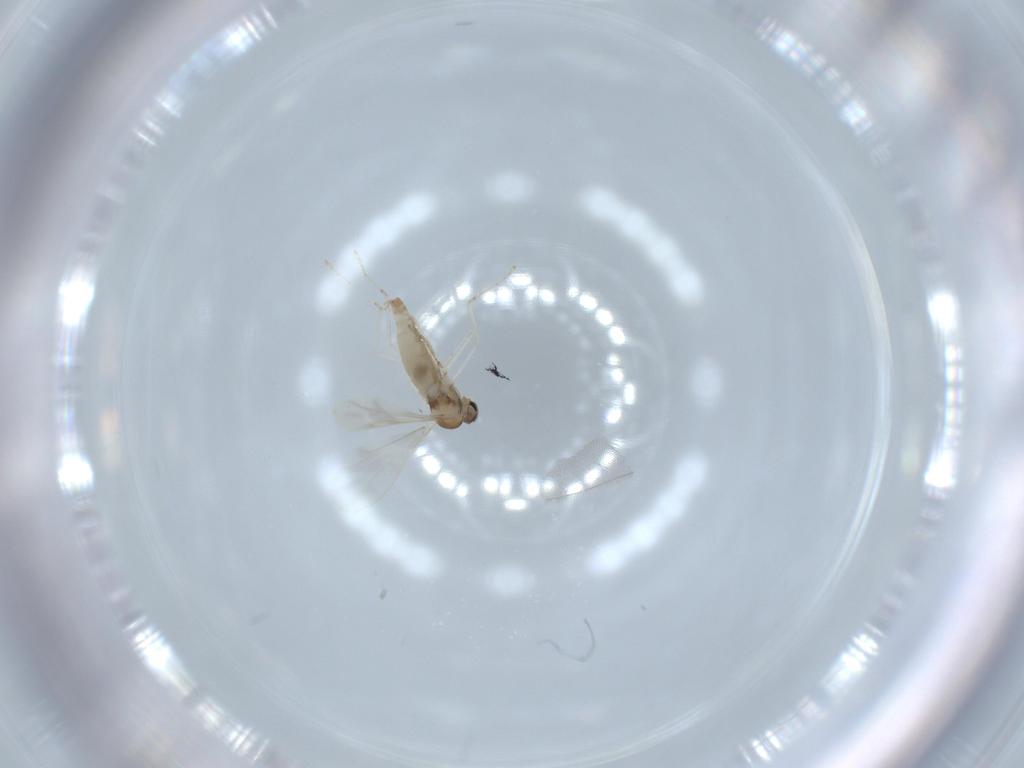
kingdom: Animalia
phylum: Arthropoda
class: Insecta
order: Diptera
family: Cecidomyiidae
